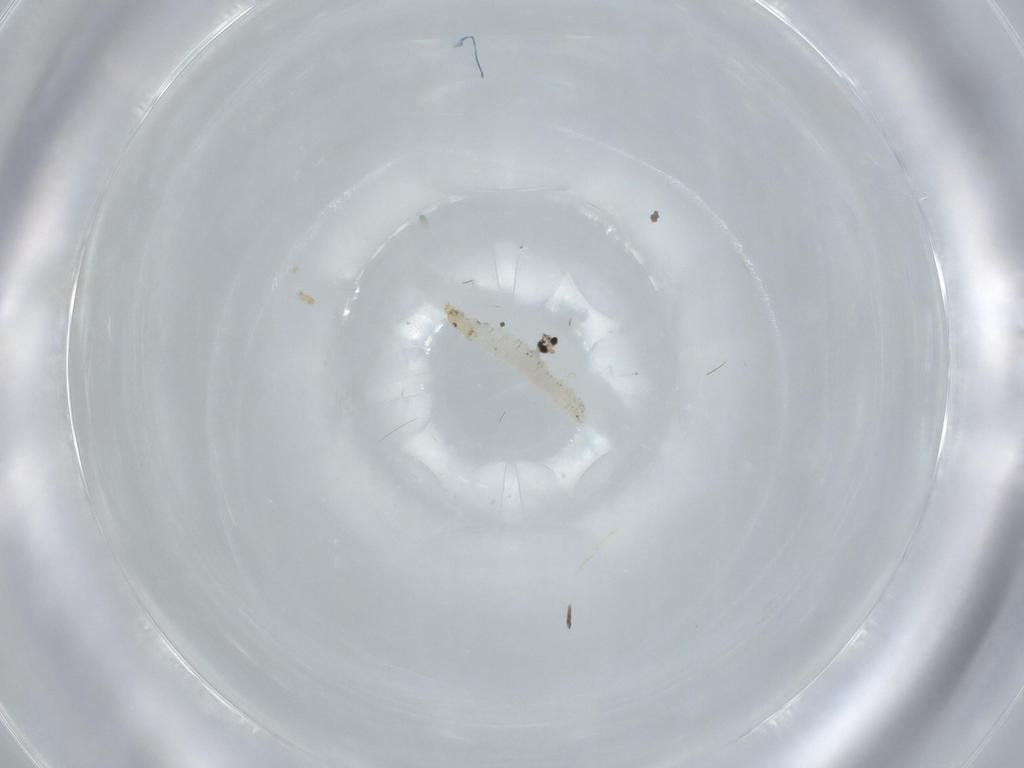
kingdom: Animalia
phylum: Arthropoda
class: Insecta
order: Diptera
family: Stratiomyidae
